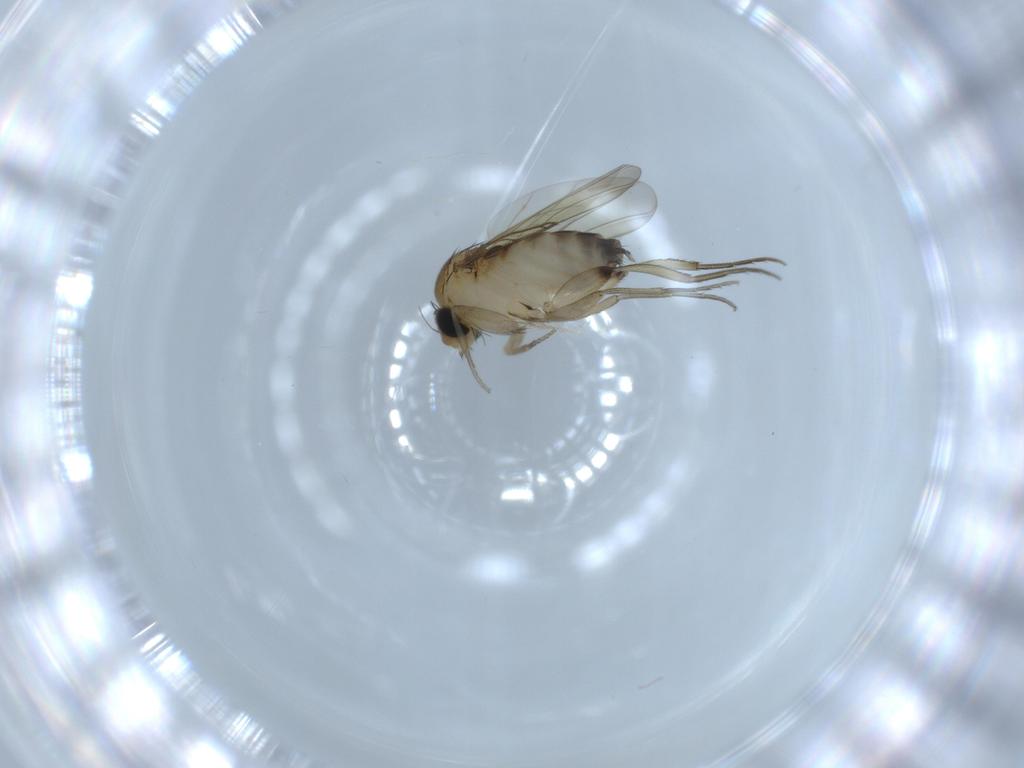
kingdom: Animalia
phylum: Arthropoda
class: Insecta
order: Diptera
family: Phoridae
